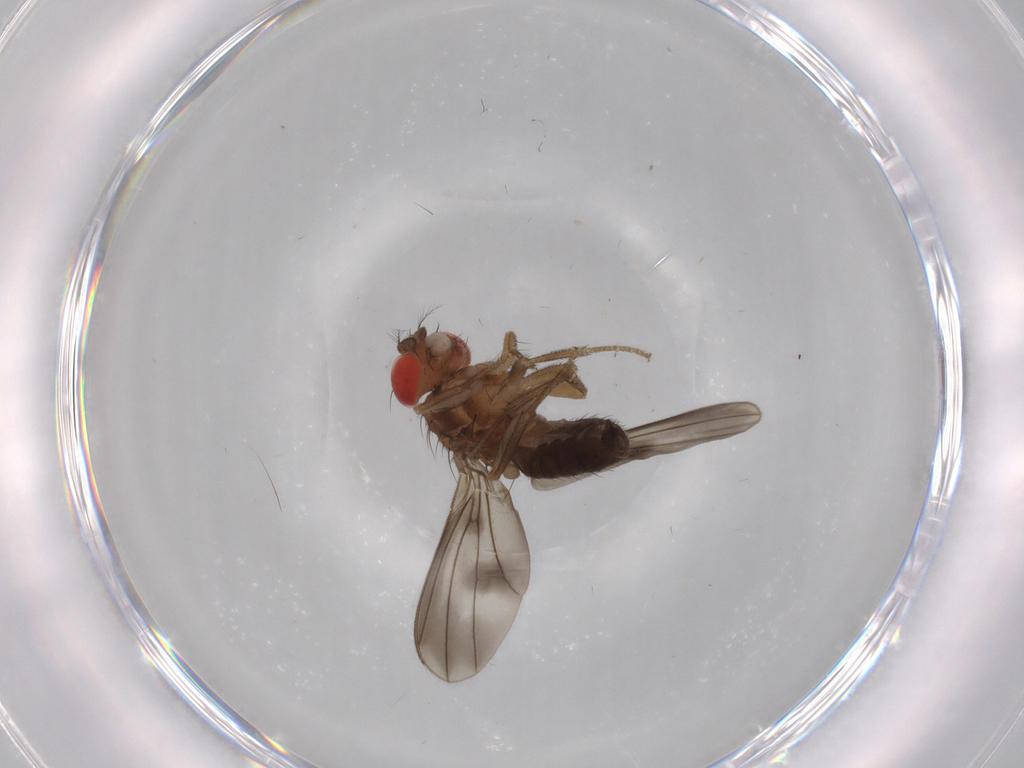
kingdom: Animalia
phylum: Arthropoda
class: Insecta
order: Diptera
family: Drosophilidae
